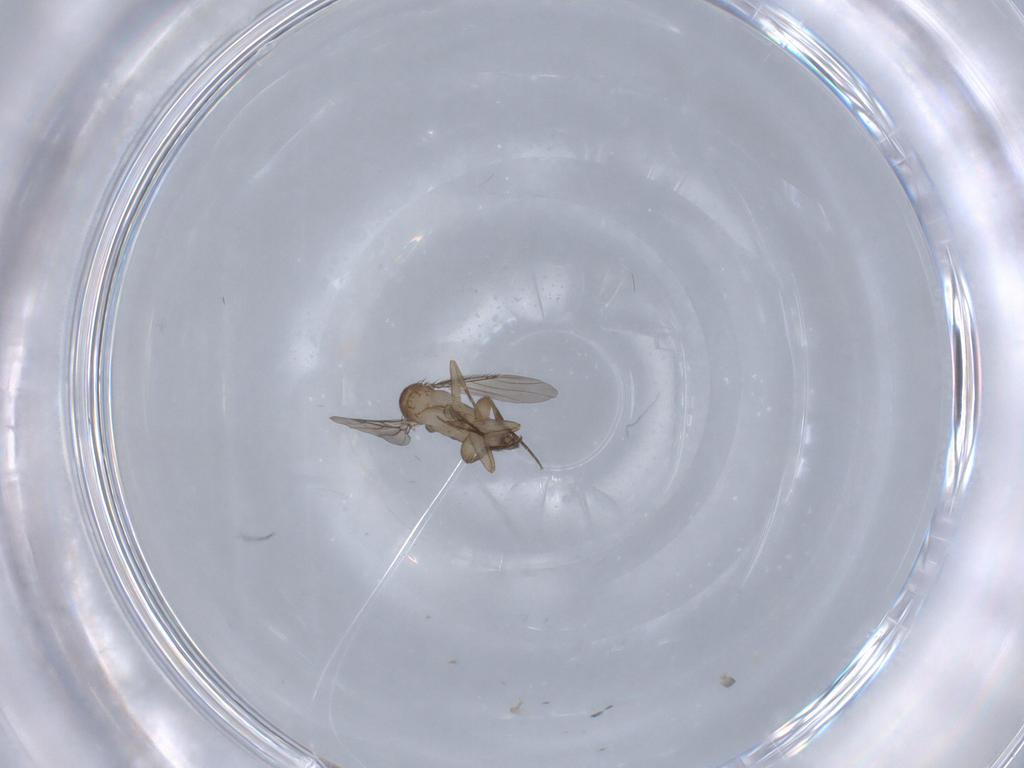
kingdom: Animalia
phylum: Arthropoda
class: Insecta
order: Diptera
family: Phoridae
